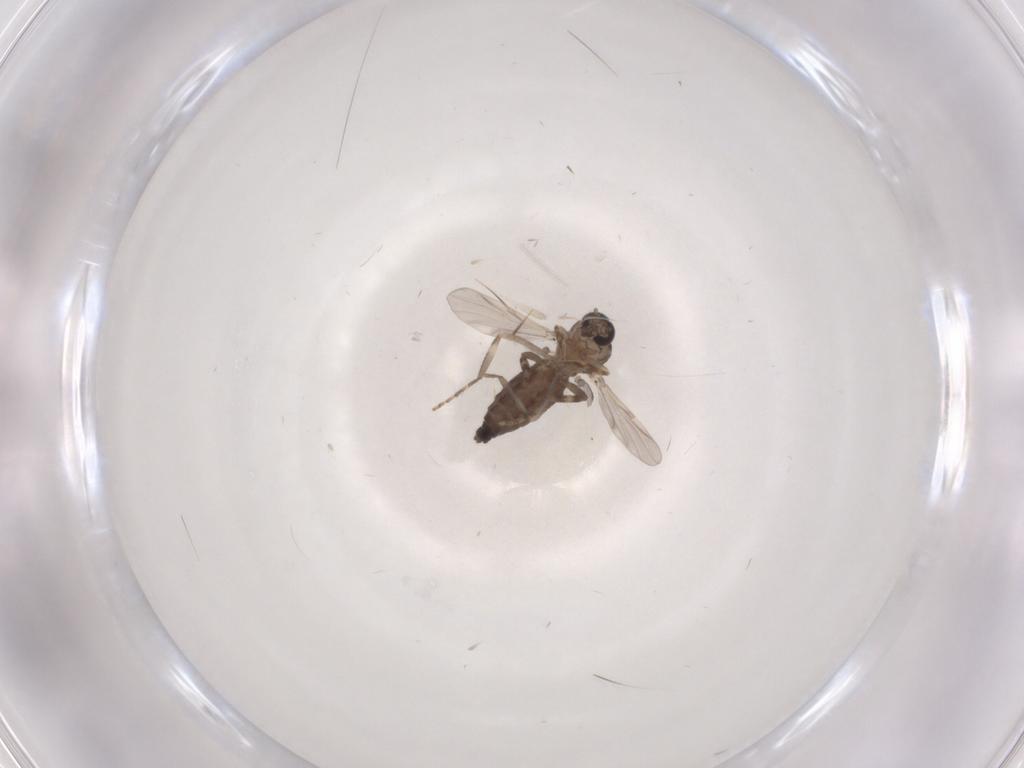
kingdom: Animalia
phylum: Arthropoda
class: Insecta
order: Diptera
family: Ceratopogonidae
